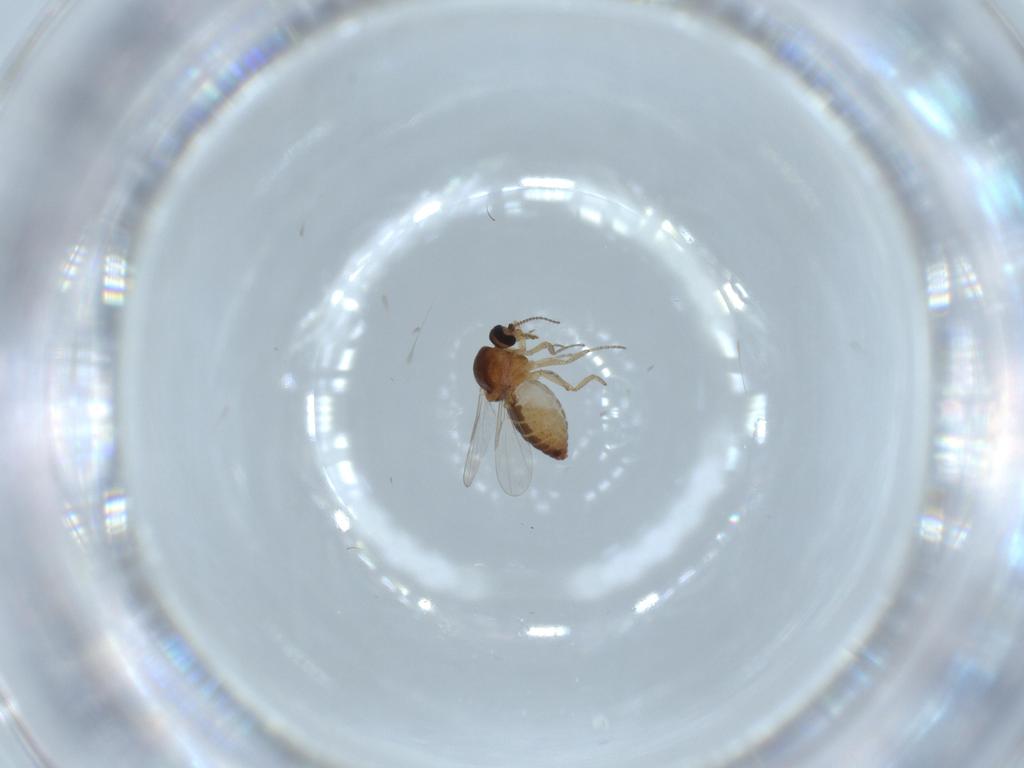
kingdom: Animalia
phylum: Arthropoda
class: Insecta
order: Diptera
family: Ceratopogonidae
